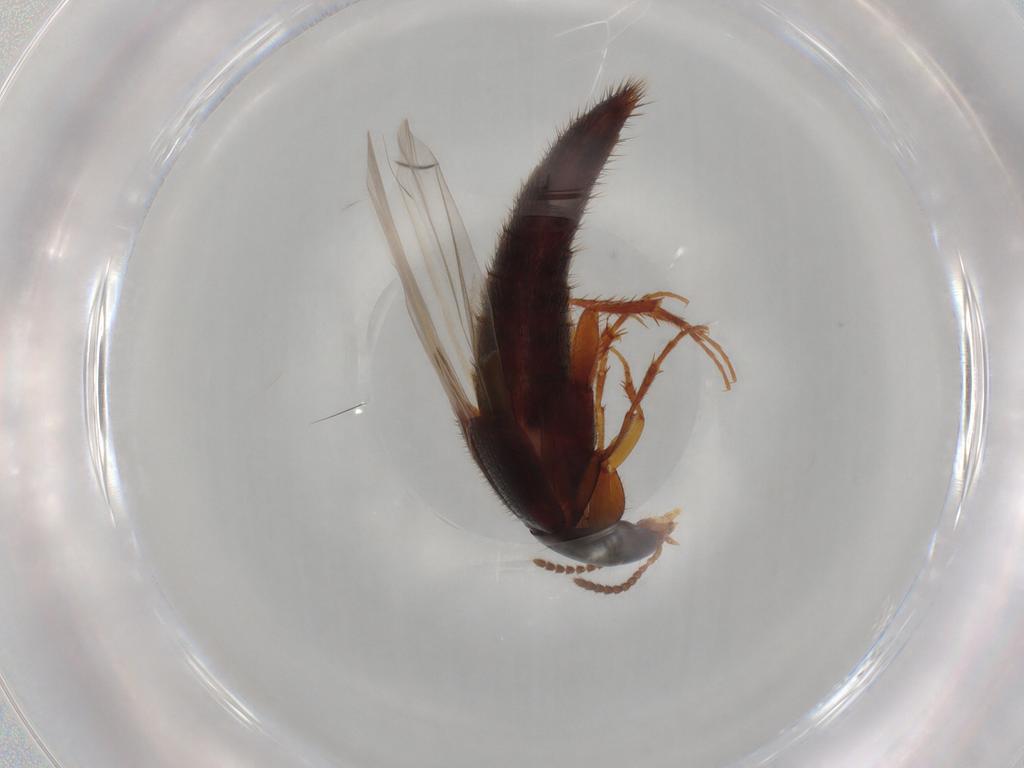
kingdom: Animalia
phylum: Arthropoda
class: Insecta
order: Coleoptera
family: Staphylinidae
